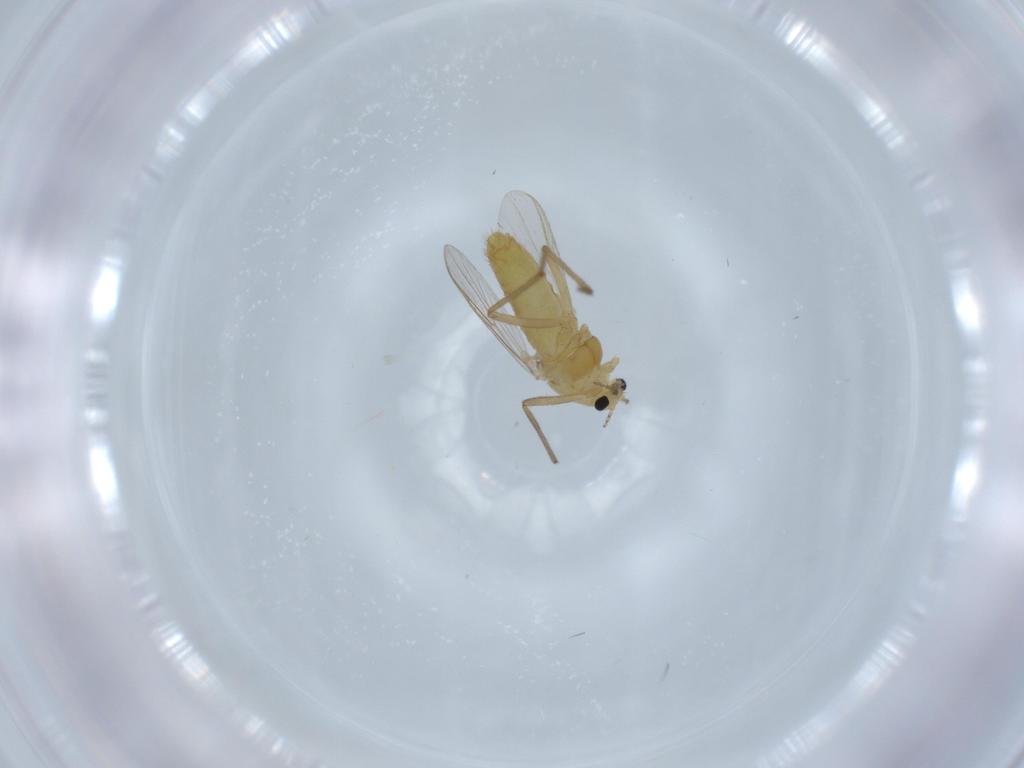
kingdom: Animalia
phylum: Arthropoda
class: Insecta
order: Diptera
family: Chironomidae
